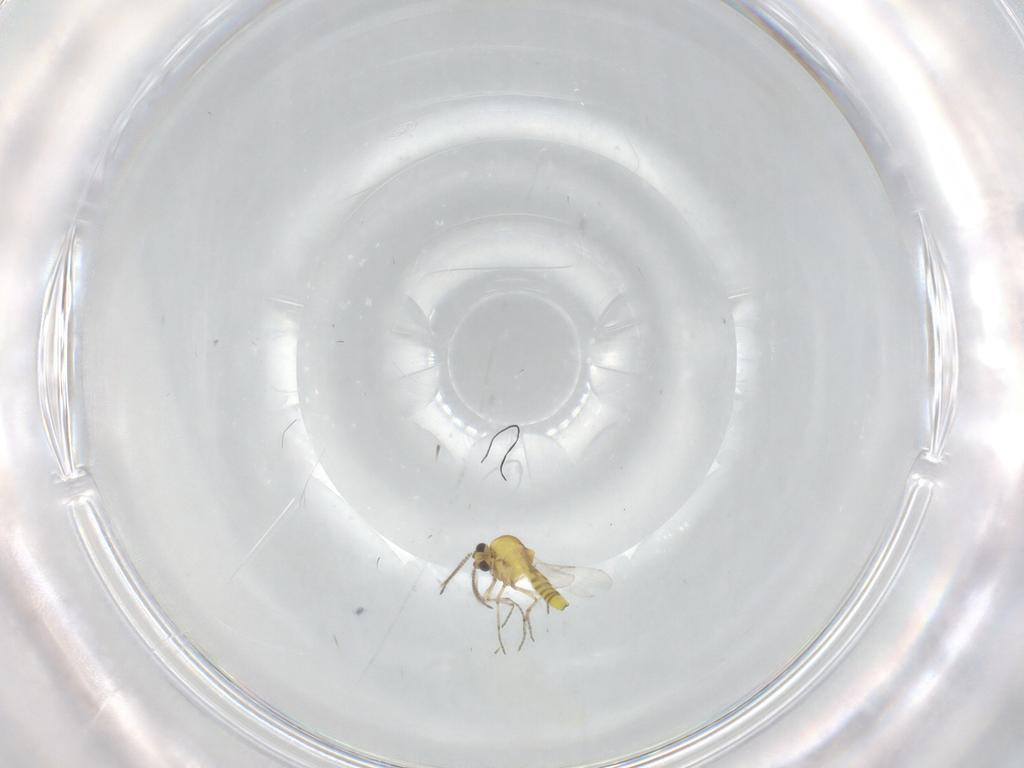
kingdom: Animalia
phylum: Arthropoda
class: Insecta
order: Diptera
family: Ceratopogonidae
